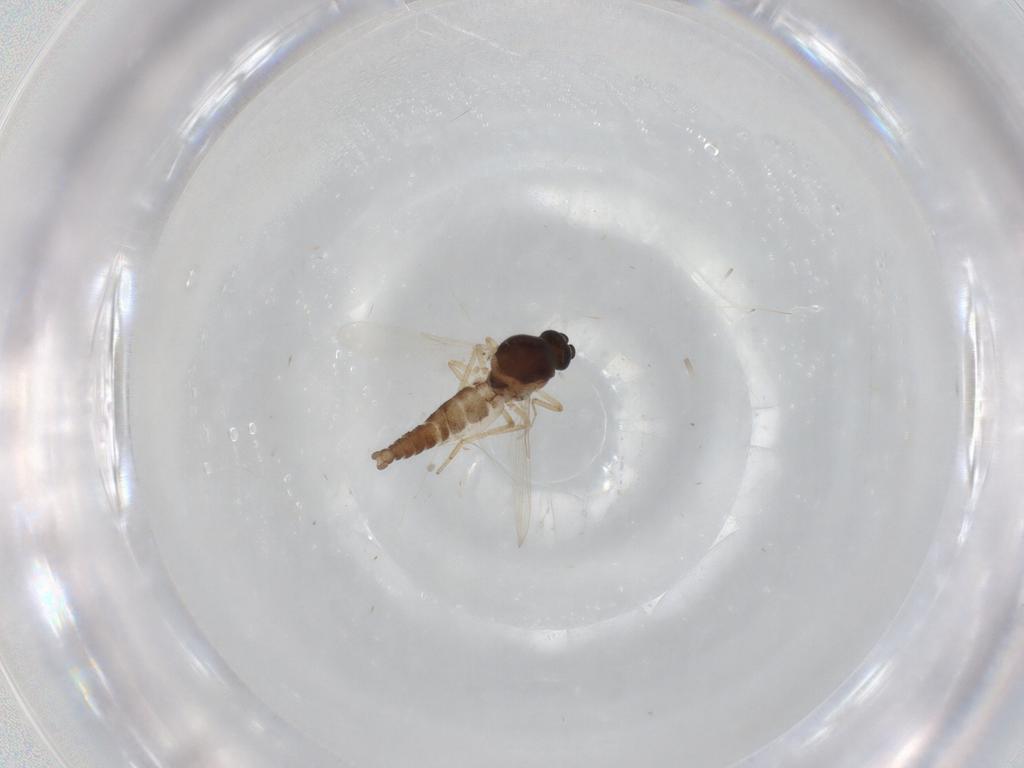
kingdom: Animalia
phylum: Arthropoda
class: Insecta
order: Diptera
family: Ceratopogonidae
